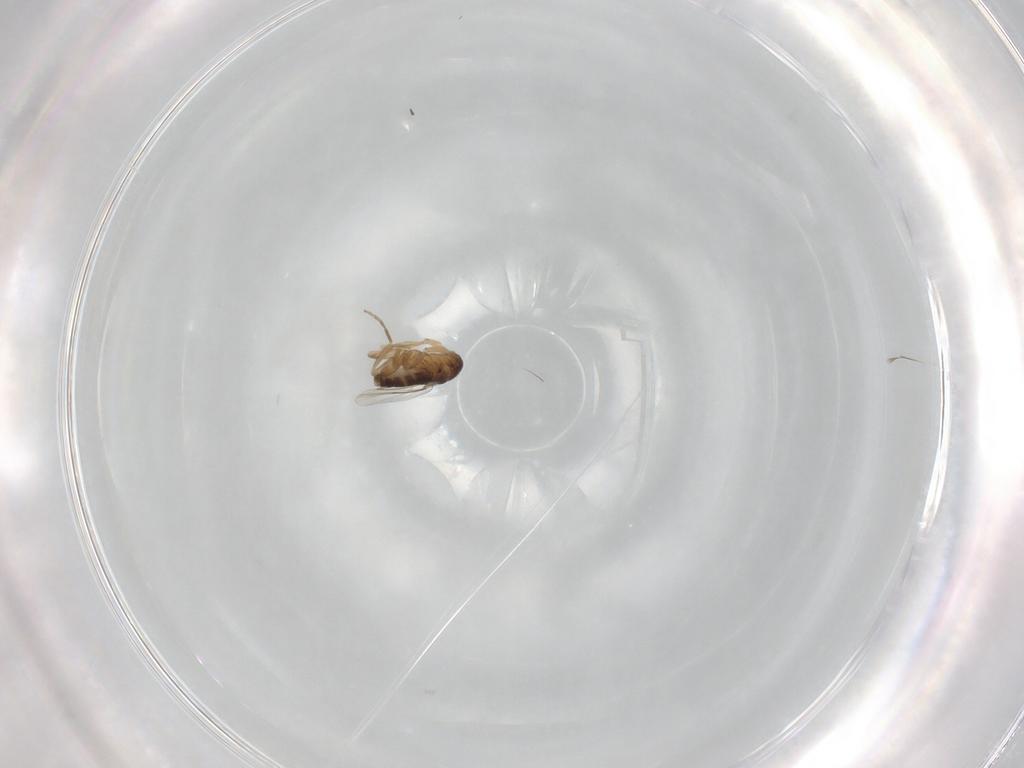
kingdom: Animalia
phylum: Arthropoda
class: Insecta
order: Diptera
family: Phoridae
